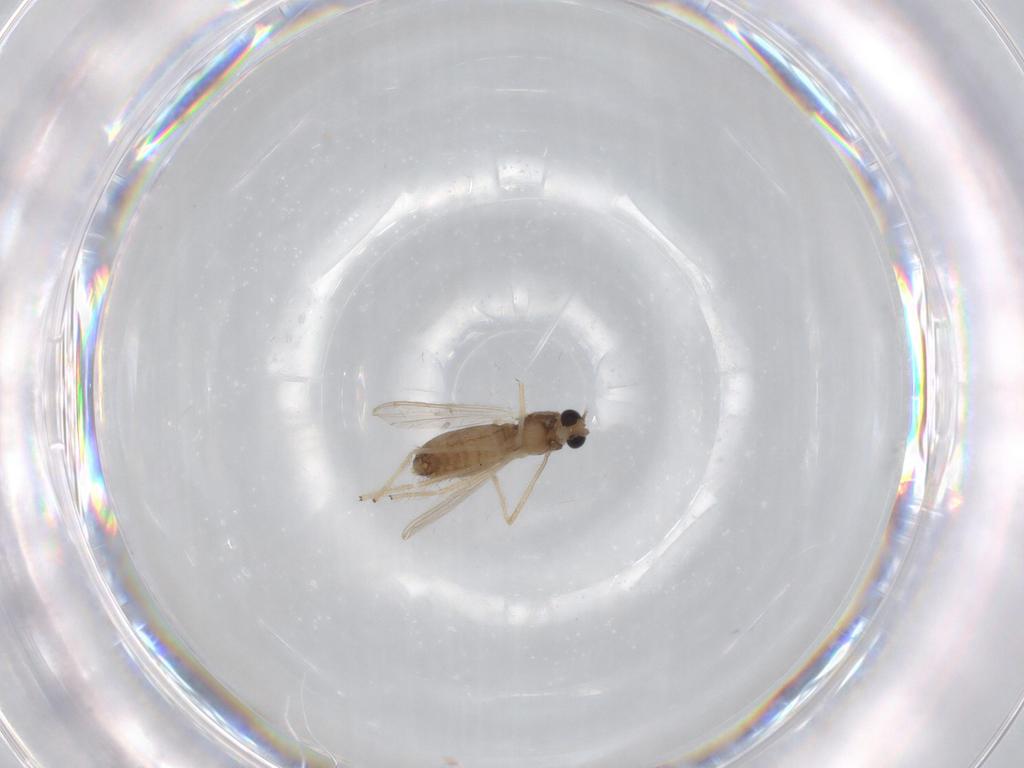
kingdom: Animalia
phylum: Arthropoda
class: Insecta
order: Diptera
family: Chironomidae
